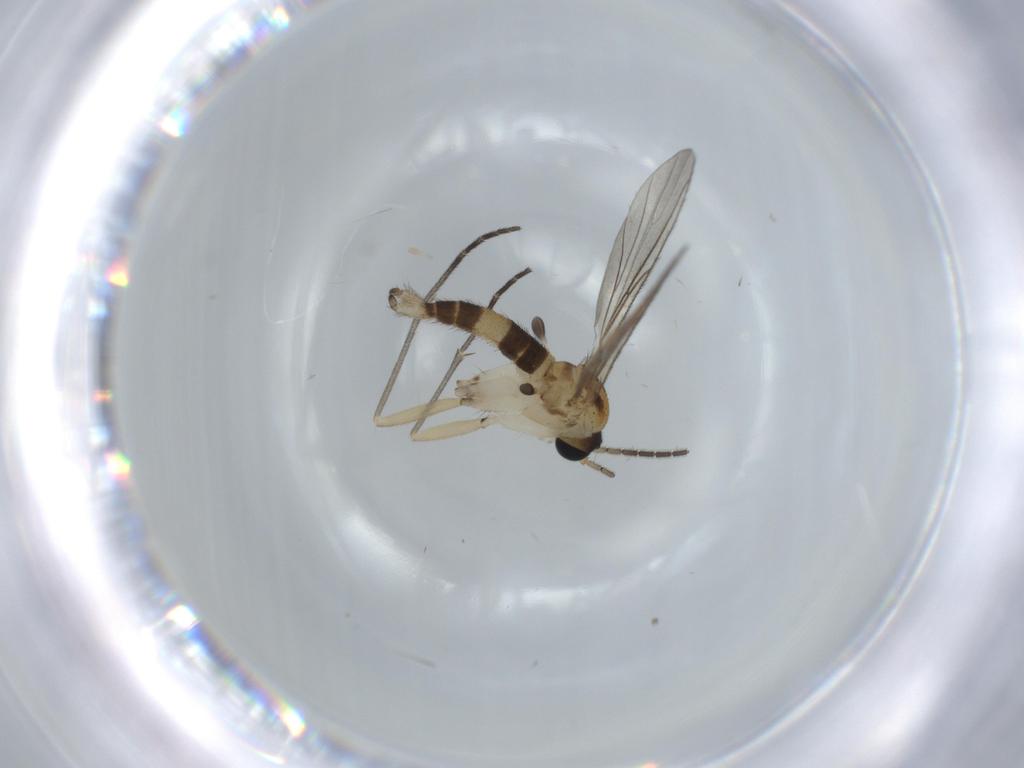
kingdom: Animalia
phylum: Arthropoda
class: Insecta
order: Diptera
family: Sciaridae
